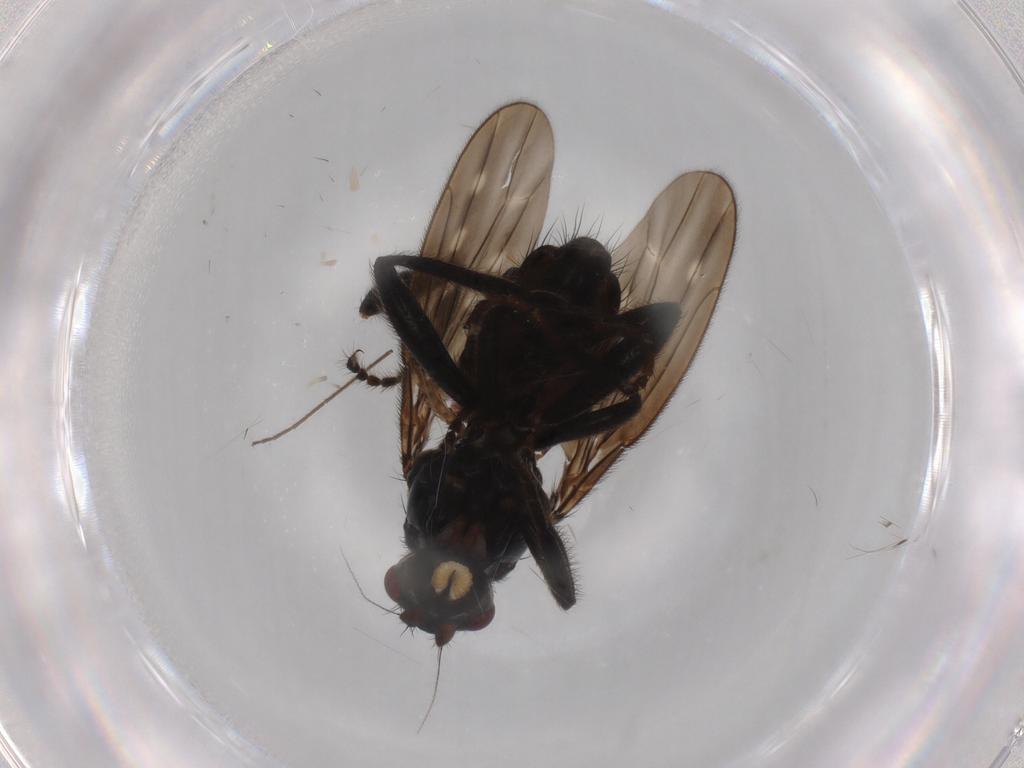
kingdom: Animalia
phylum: Arthropoda
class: Insecta
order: Diptera
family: Sphaeroceridae
